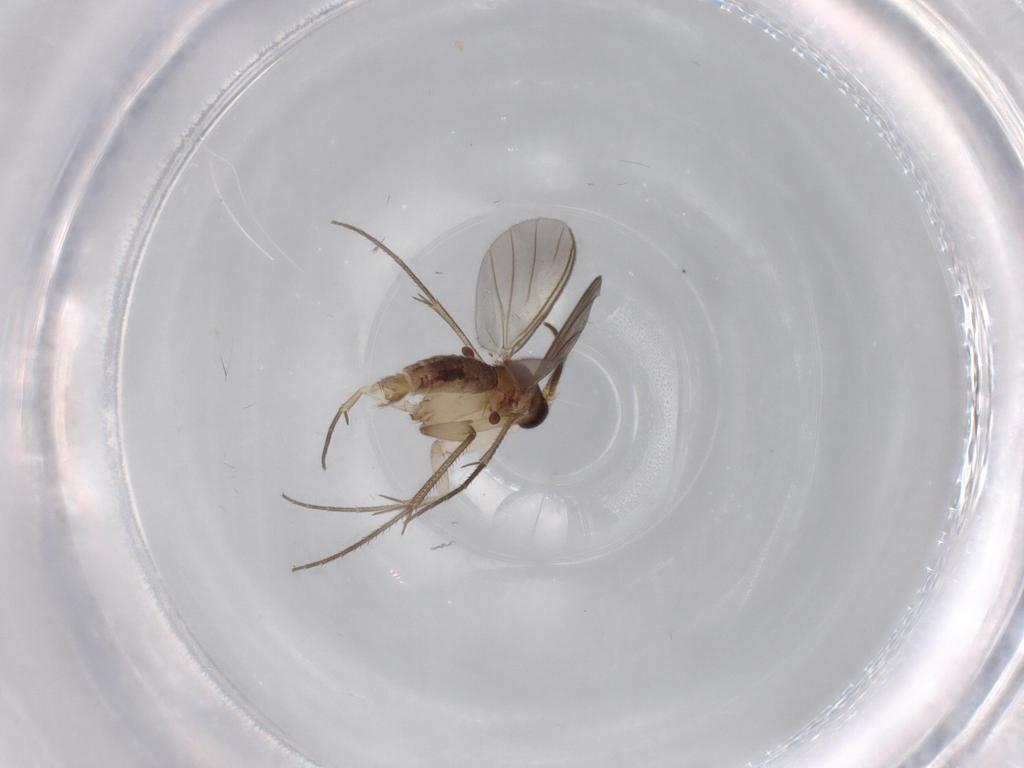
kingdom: Animalia
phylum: Arthropoda
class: Insecta
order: Diptera
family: Mycetophilidae
